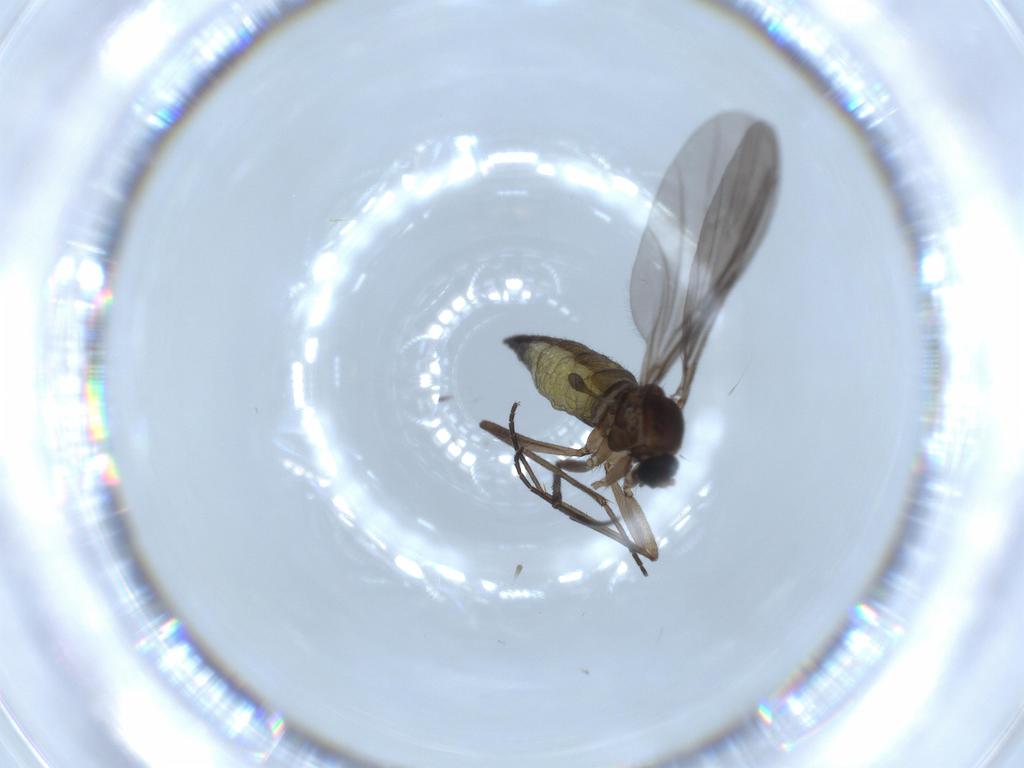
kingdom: Animalia
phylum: Arthropoda
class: Insecta
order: Diptera
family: Sciaridae
